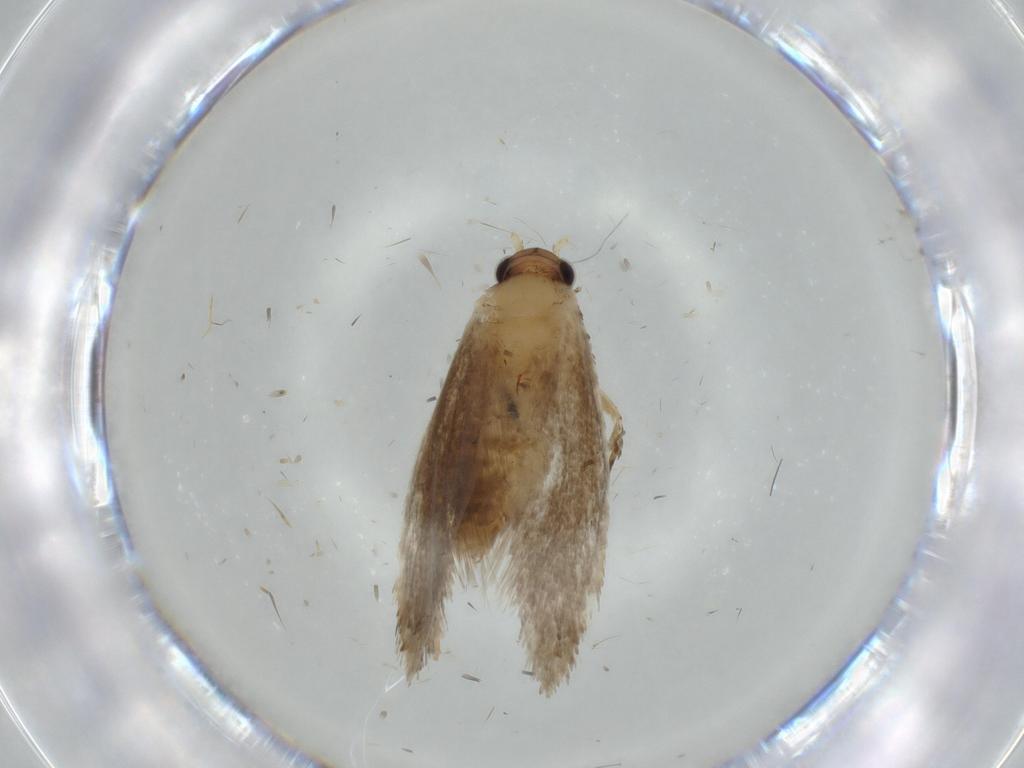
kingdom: Animalia
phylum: Arthropoda
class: Insecta
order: Lepidoptera
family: Tineidae
